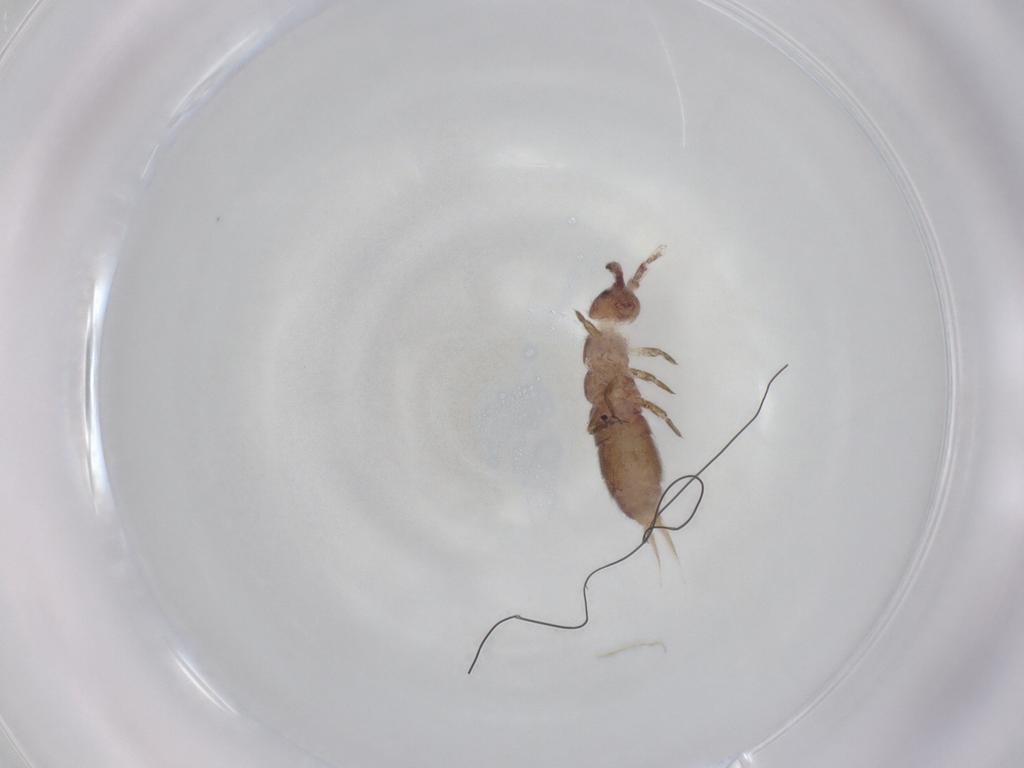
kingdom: Animalia
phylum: Arthropoda
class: Collembola
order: Entomobryomorpha
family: Isotomidae
